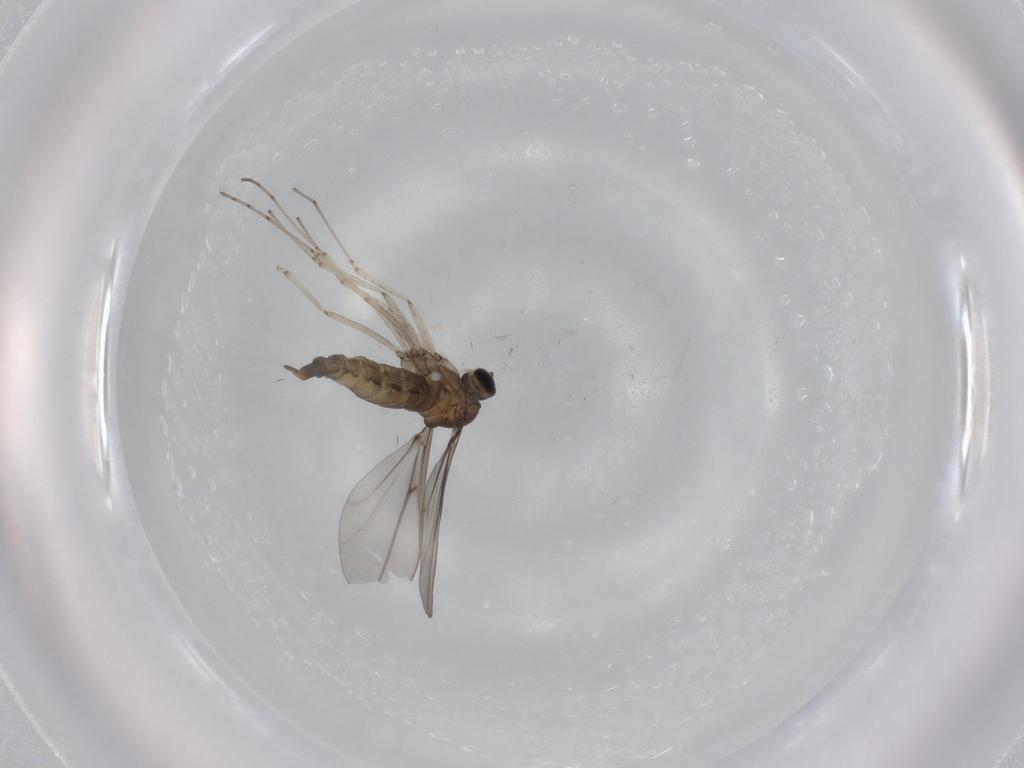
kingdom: Animalia
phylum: Arthropoda
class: Insecta
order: Diptera
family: Cecidomyiidae
